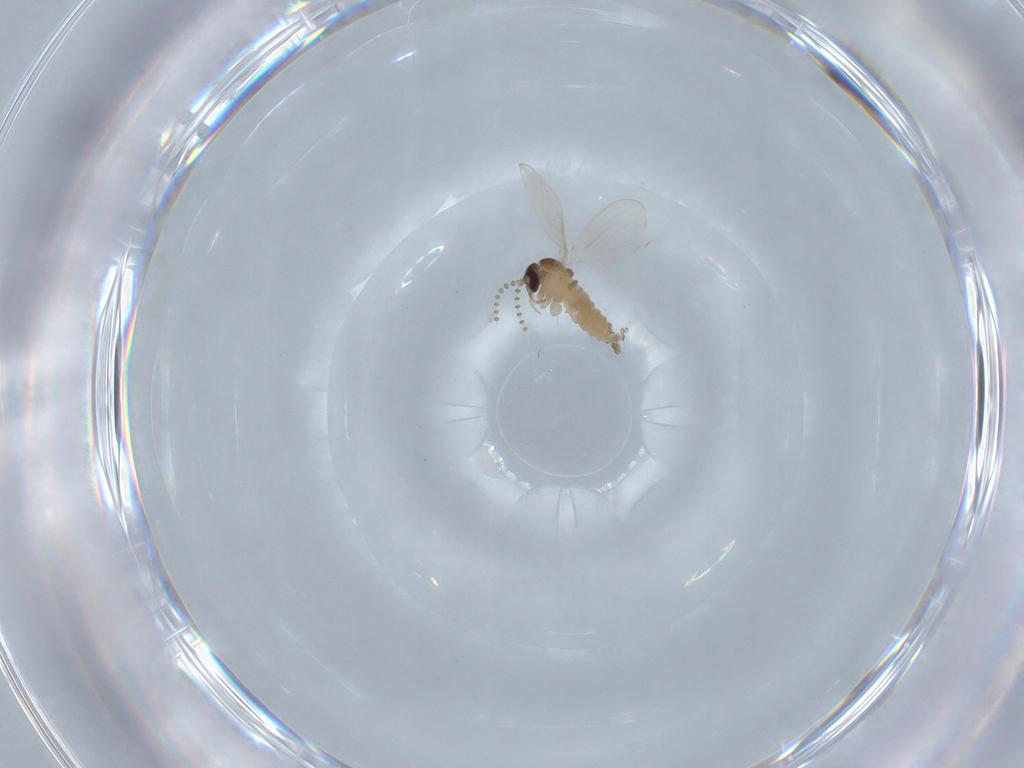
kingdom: Animalia
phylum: Arthropoda
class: Insecta
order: Diptera
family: Psychodidae
